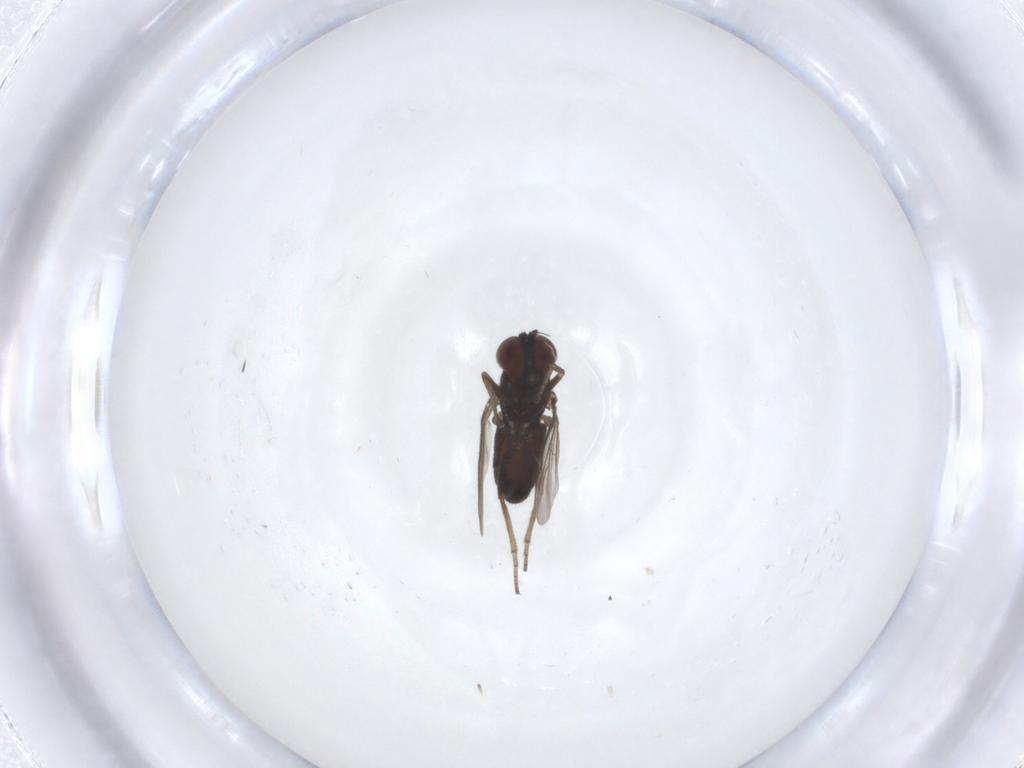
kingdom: Animalia
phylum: Arthropoda
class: Insecta
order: Diptera
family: Dolichopodidae
